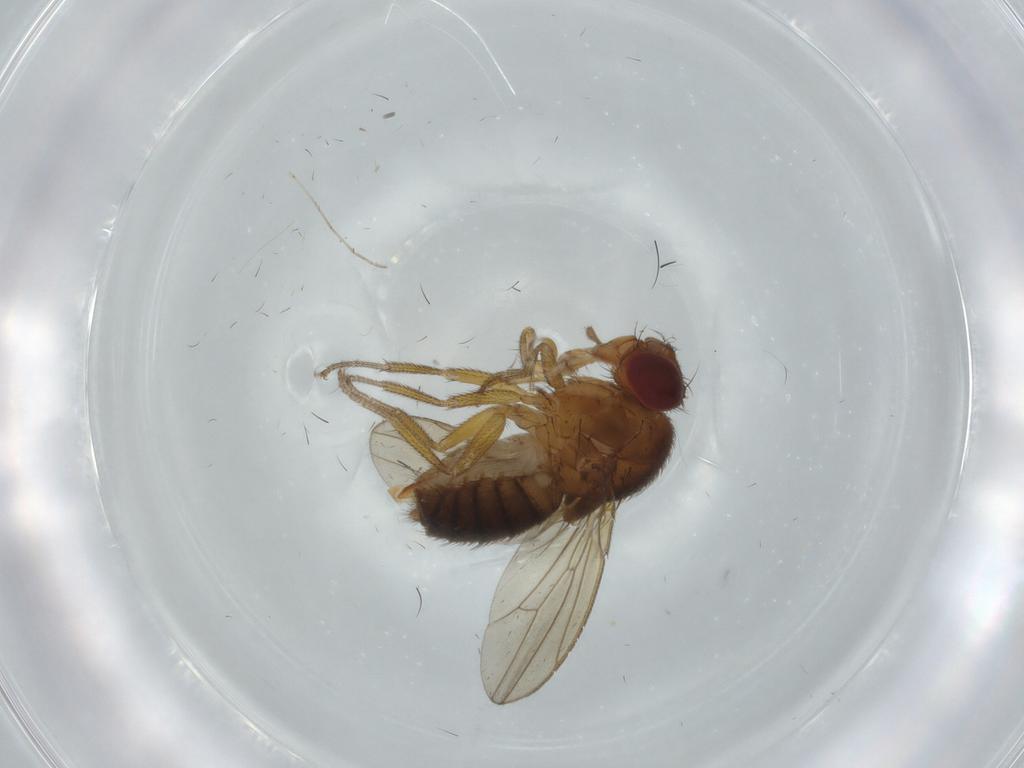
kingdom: Animalia
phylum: Arthropoda
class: Insecta
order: Diptera
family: Drosophilidae
